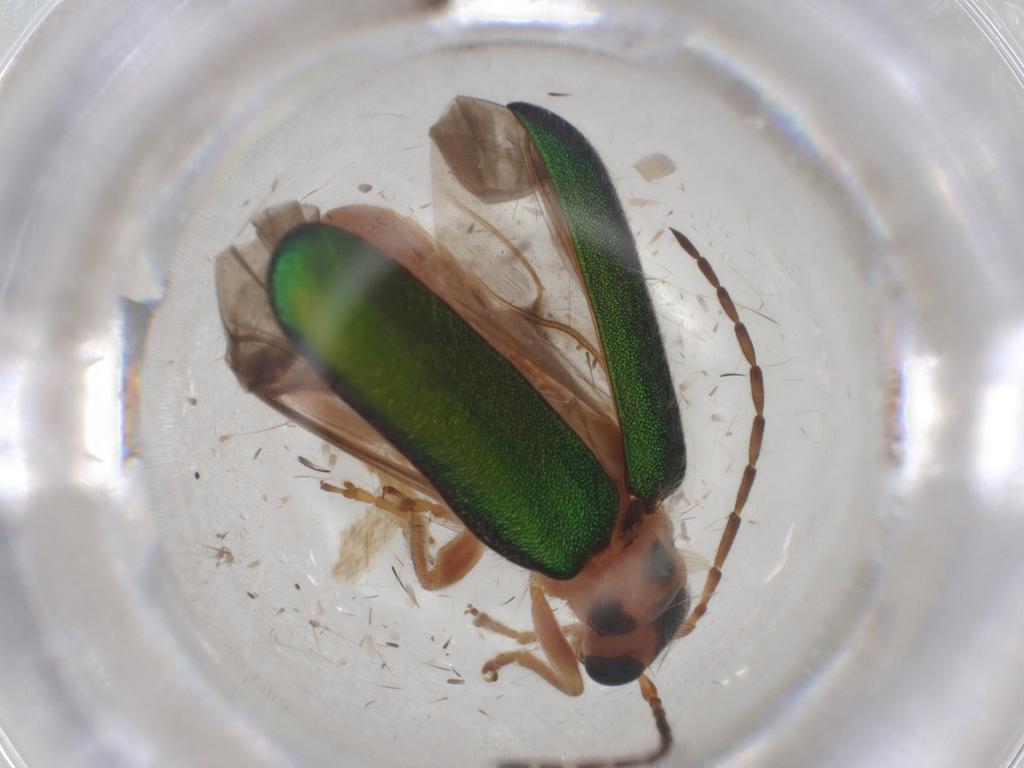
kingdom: Animalia
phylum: Arthropoda
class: Insecta
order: Coleoptera
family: Chrysomelidae
